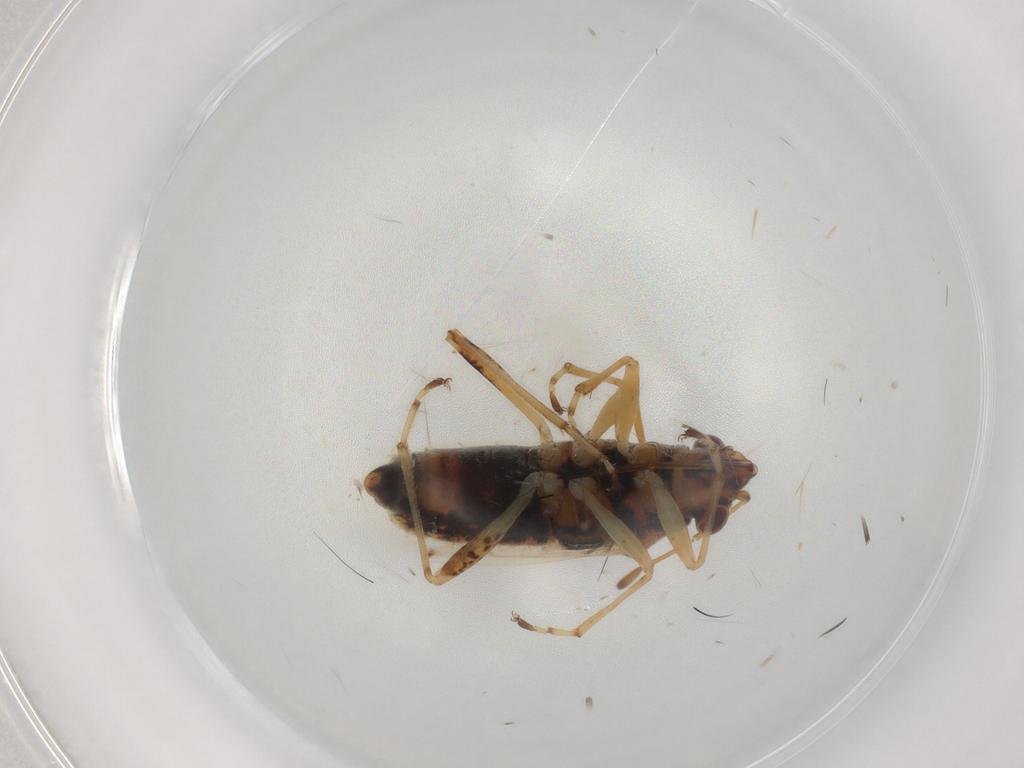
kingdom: Animalia
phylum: Arthropoda
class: Insecta
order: Hemiptera
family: Lygaeidae
